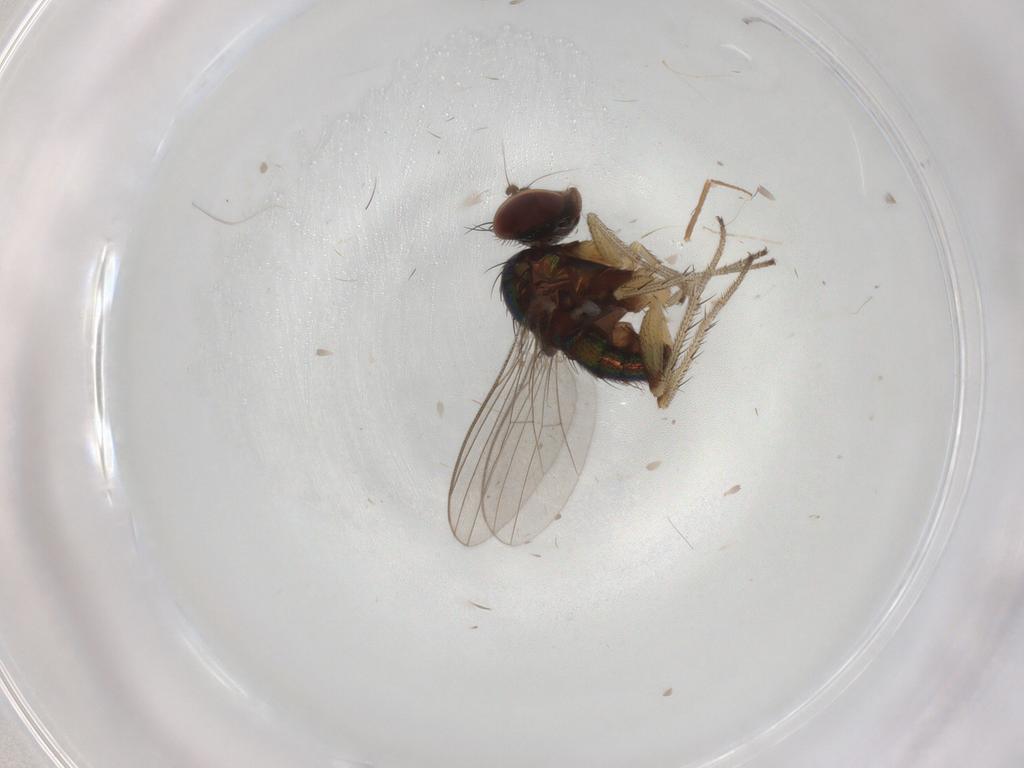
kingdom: Animalia
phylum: Arthropoda
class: Insecta
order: Diptera
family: Dolichopodidae
